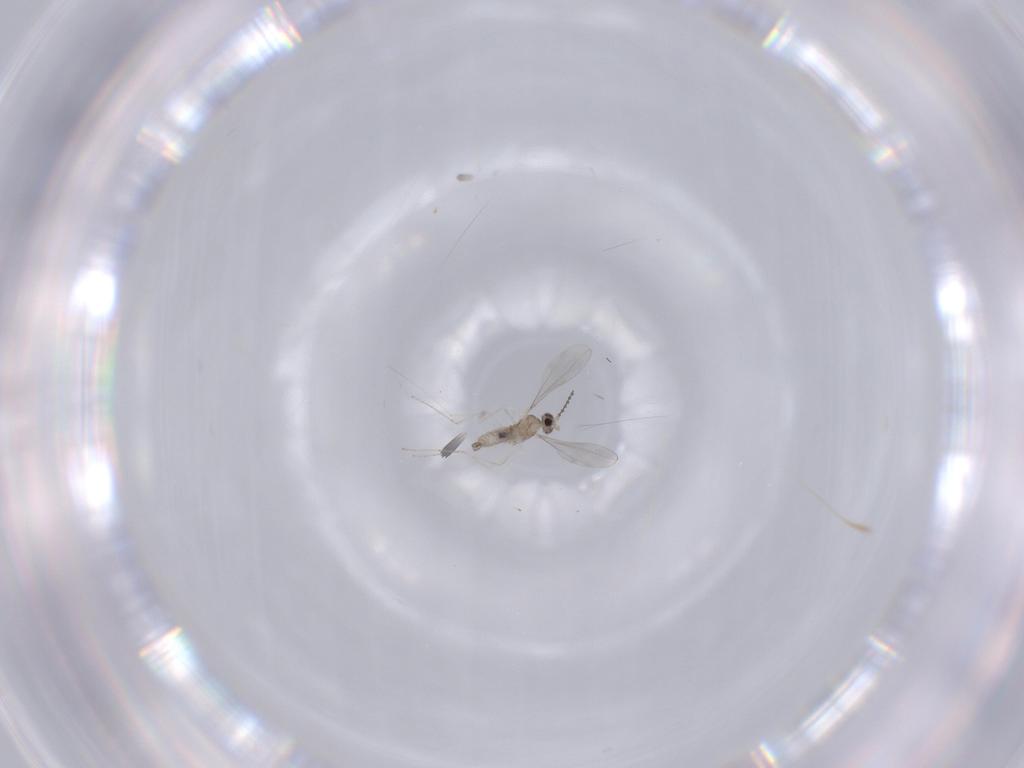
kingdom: Animalia
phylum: Arthropoda
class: Insecta
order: Diptera
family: Cecidomyiidae
